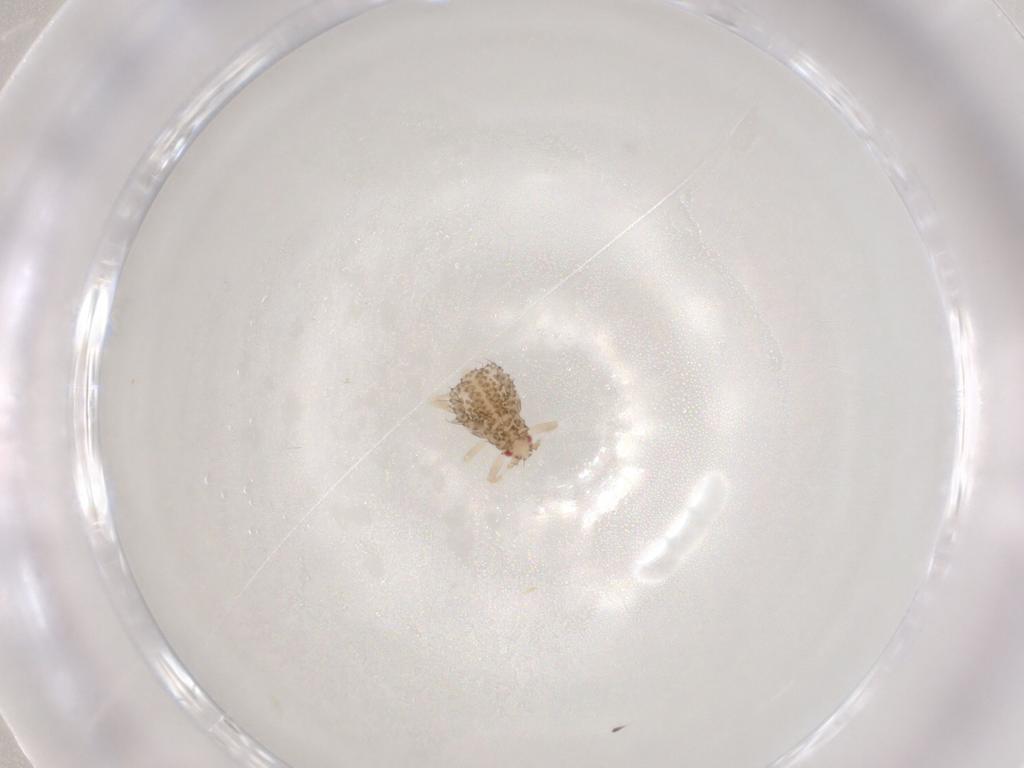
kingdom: Animalia
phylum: Arthropoda
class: Insecta
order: Hemiptera
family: Aphididae
